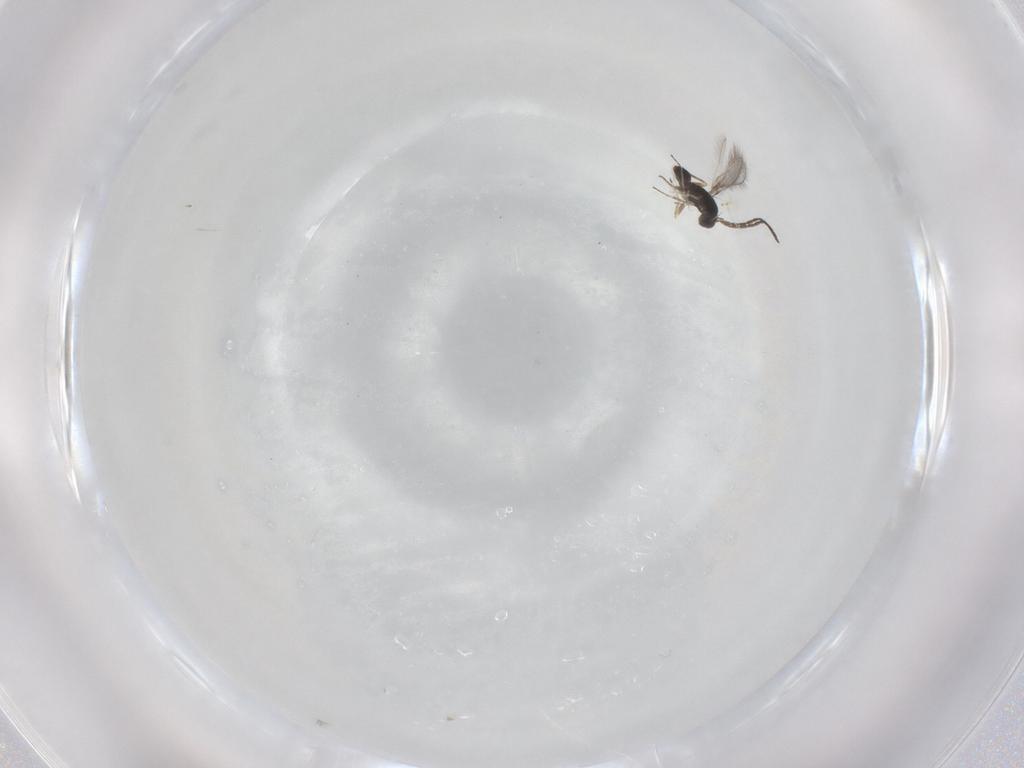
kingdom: Animalia
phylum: Arthropoda
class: Insecta
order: Hymenoptera
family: Mymaridae
